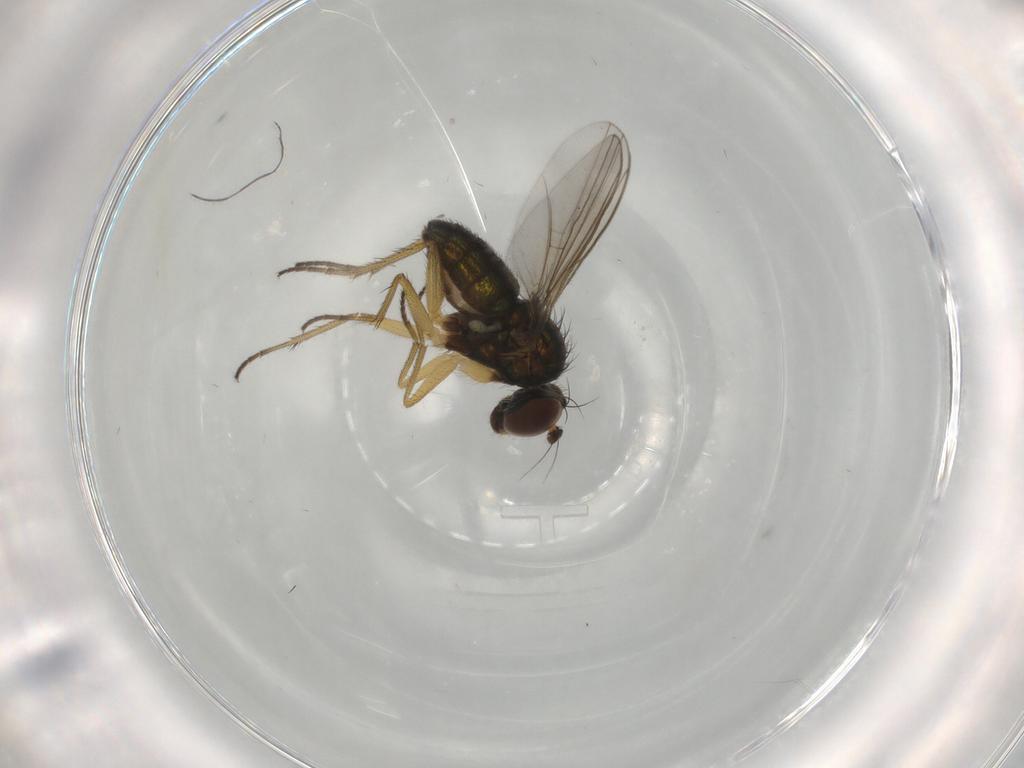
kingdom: Animalia
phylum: Arthropoda
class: Insecta
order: Diptera
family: Dolichopodidae
